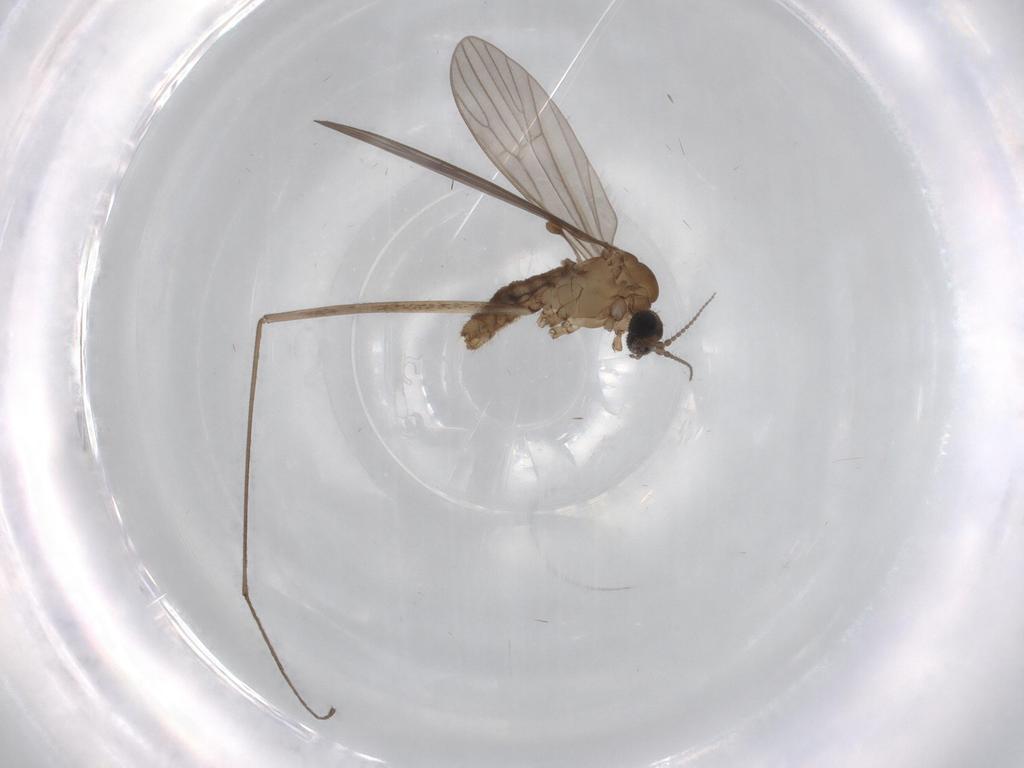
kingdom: Animalia
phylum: Arthropoda
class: Insecta
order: Diptera
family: Limoniidae
